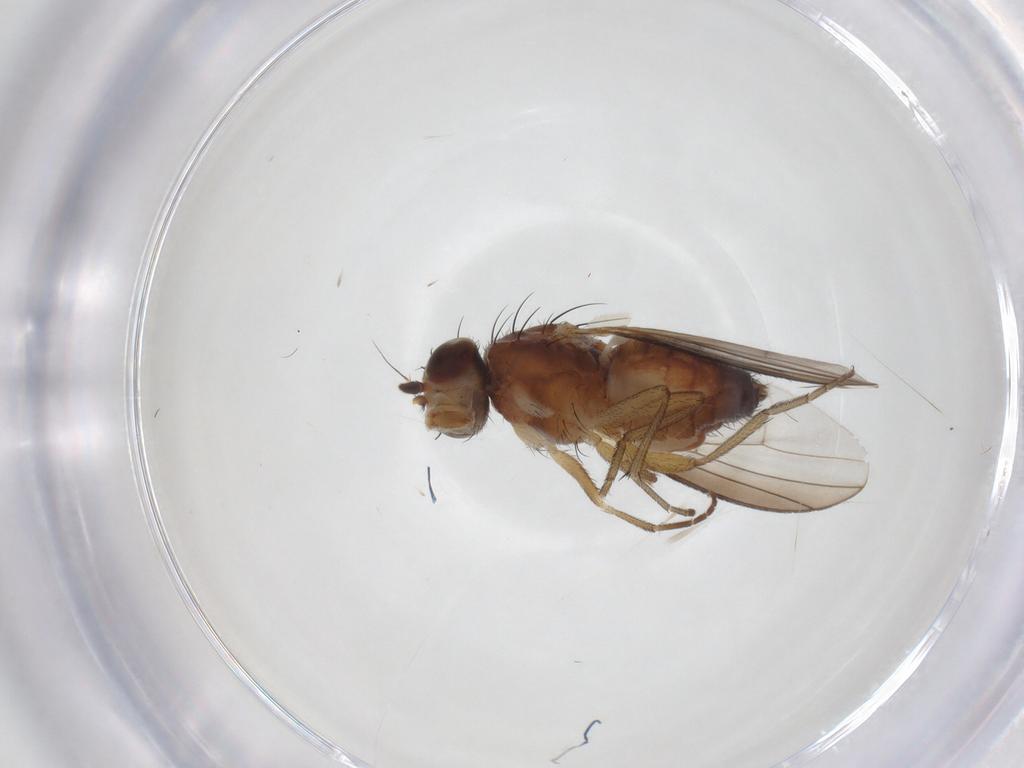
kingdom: Animalia
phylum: Arthropoda
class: Insecta
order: Diptera
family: Heleomyzidae
